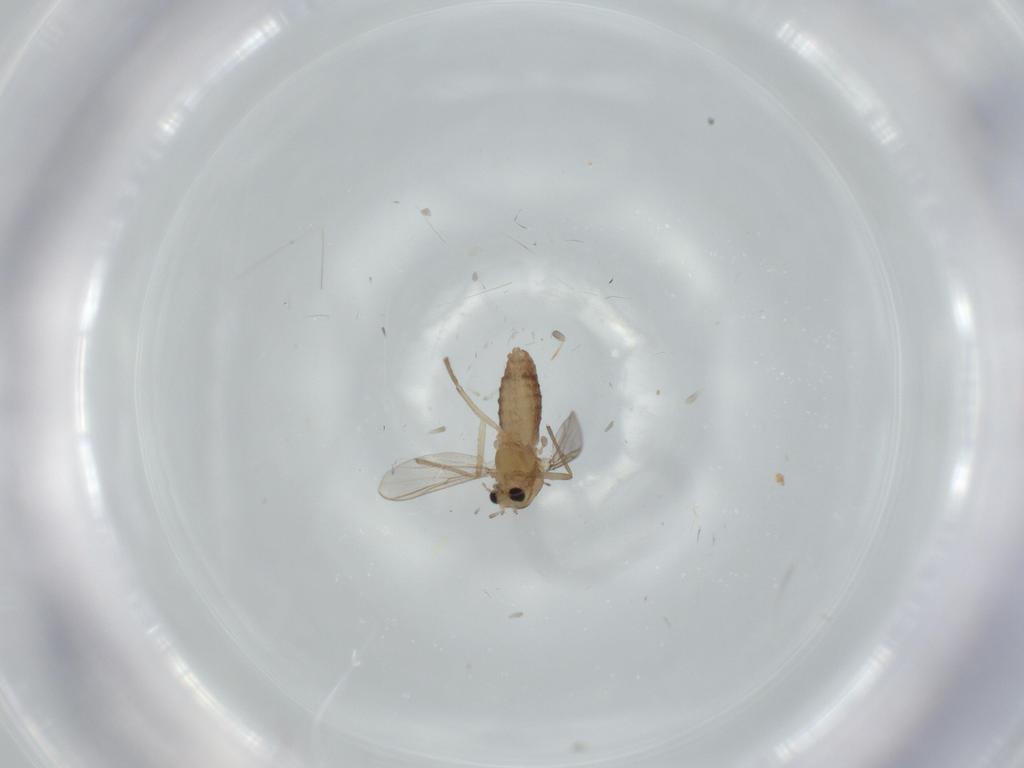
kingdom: Animalia
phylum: Arthropoda
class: Insecta
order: Diptera
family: Chironomidae
